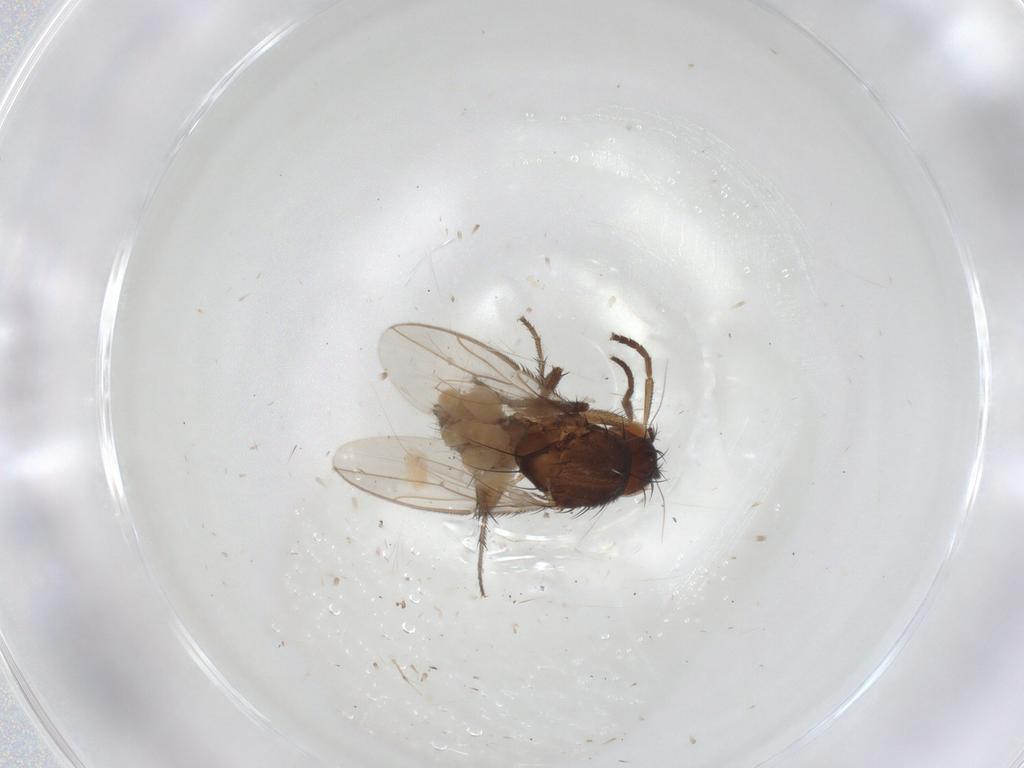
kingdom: Animalia
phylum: Arthropoda
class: Insecta
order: Diptera
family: Sphaeroceridae
